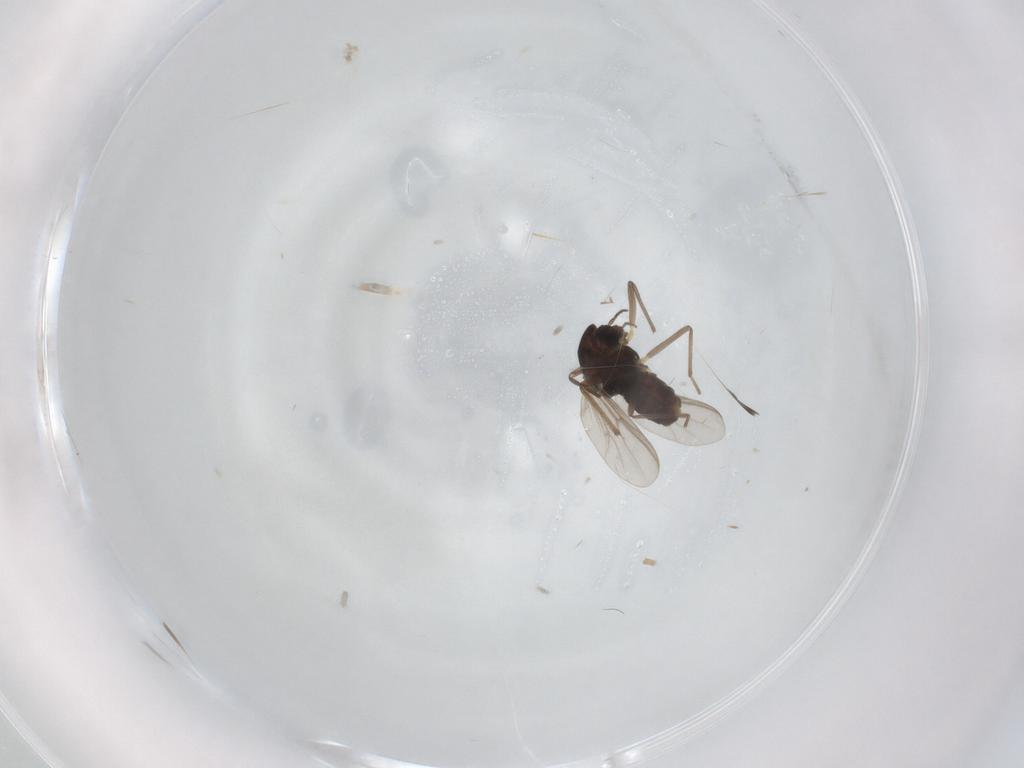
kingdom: Animalia
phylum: Arthropoda
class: Insecta
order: Diptera
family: Chironomidae
